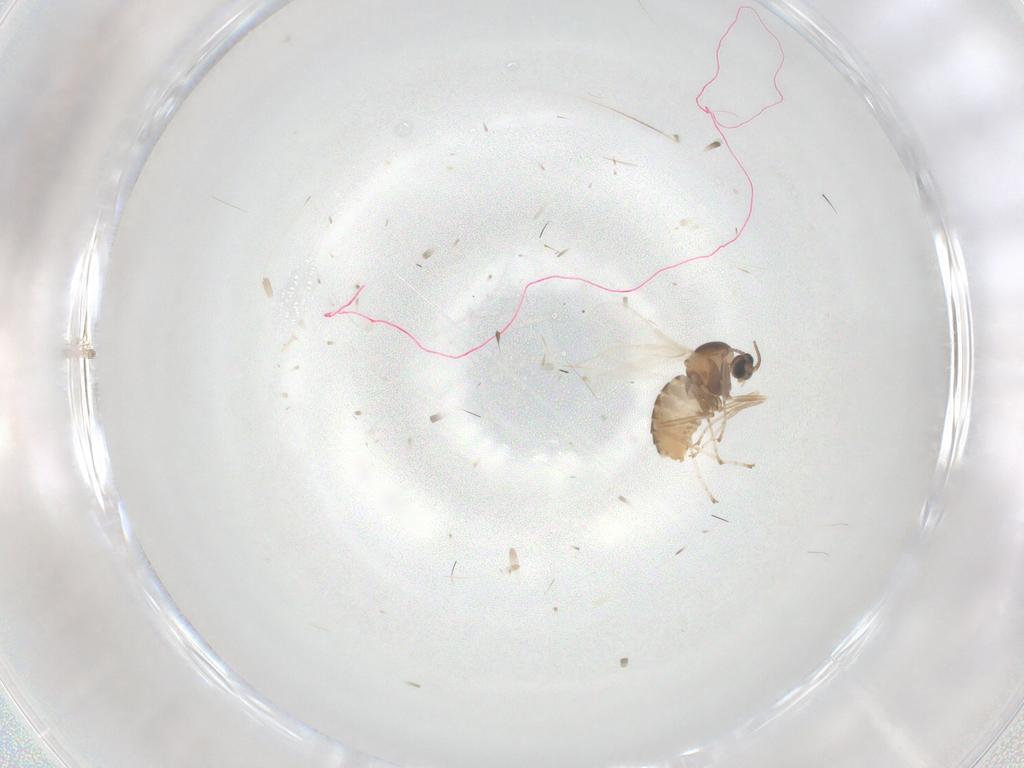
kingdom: Animalia
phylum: Arthropoda
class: Insecta
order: Diptera
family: Cecidomyiidae
